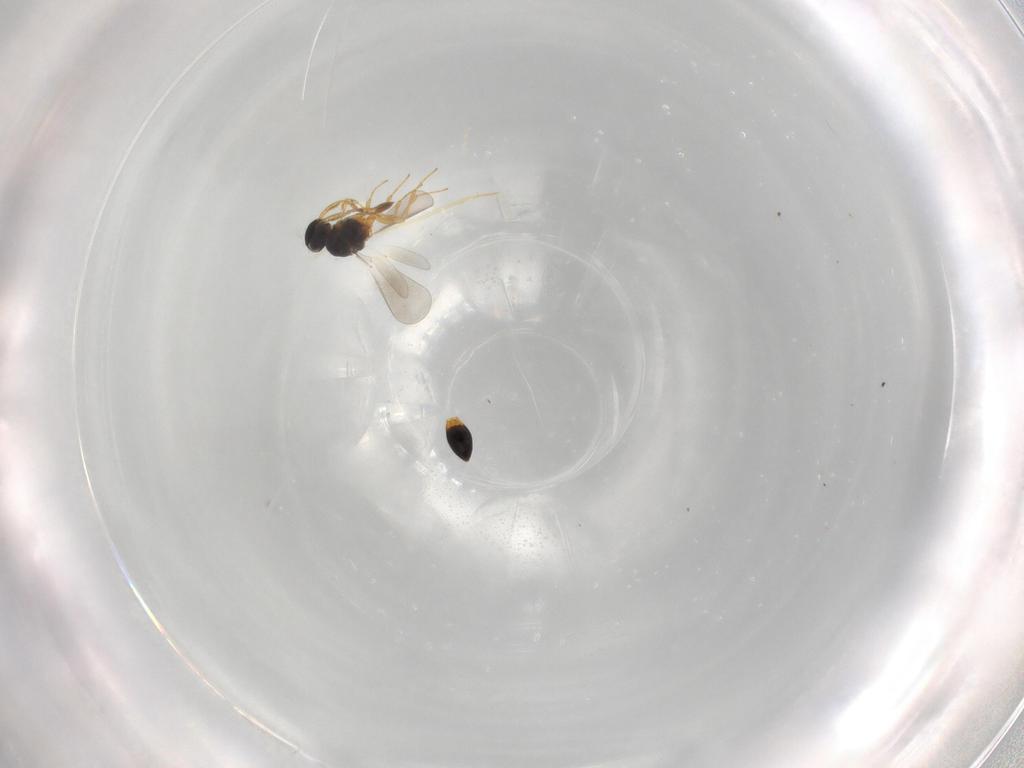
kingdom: Animalia
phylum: Arthropoda
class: Insecta
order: Hymenoptera
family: Platygastridae
